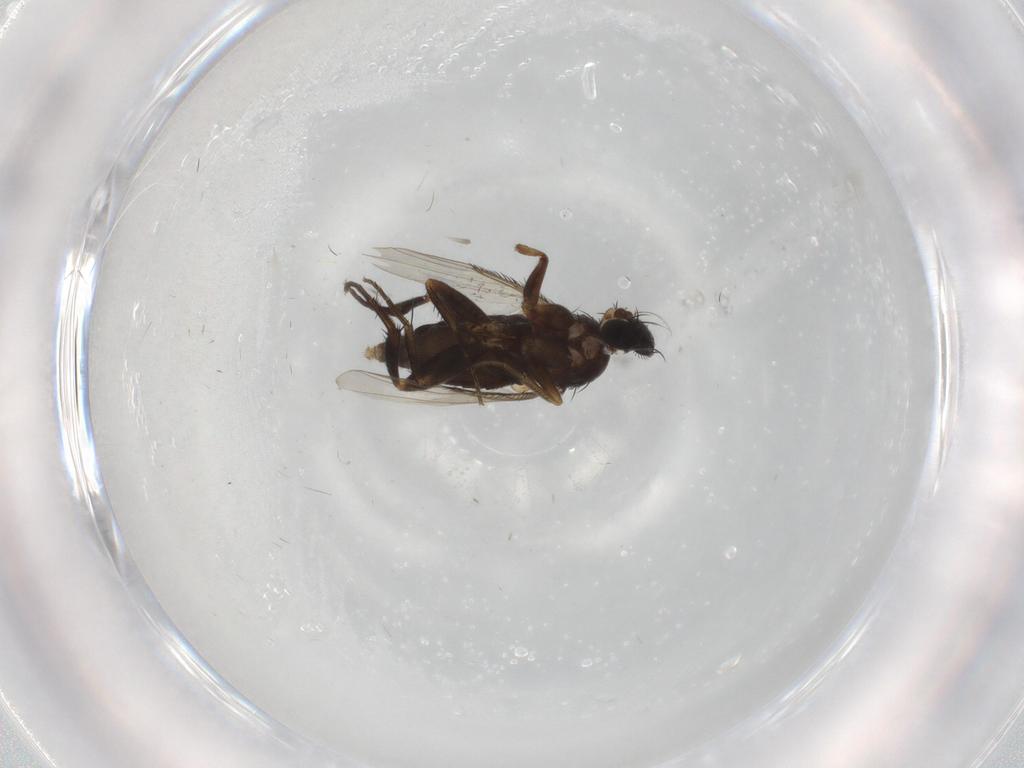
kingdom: Animalia
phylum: Arthropoda
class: Insecta
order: Diptera
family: Phoridae
